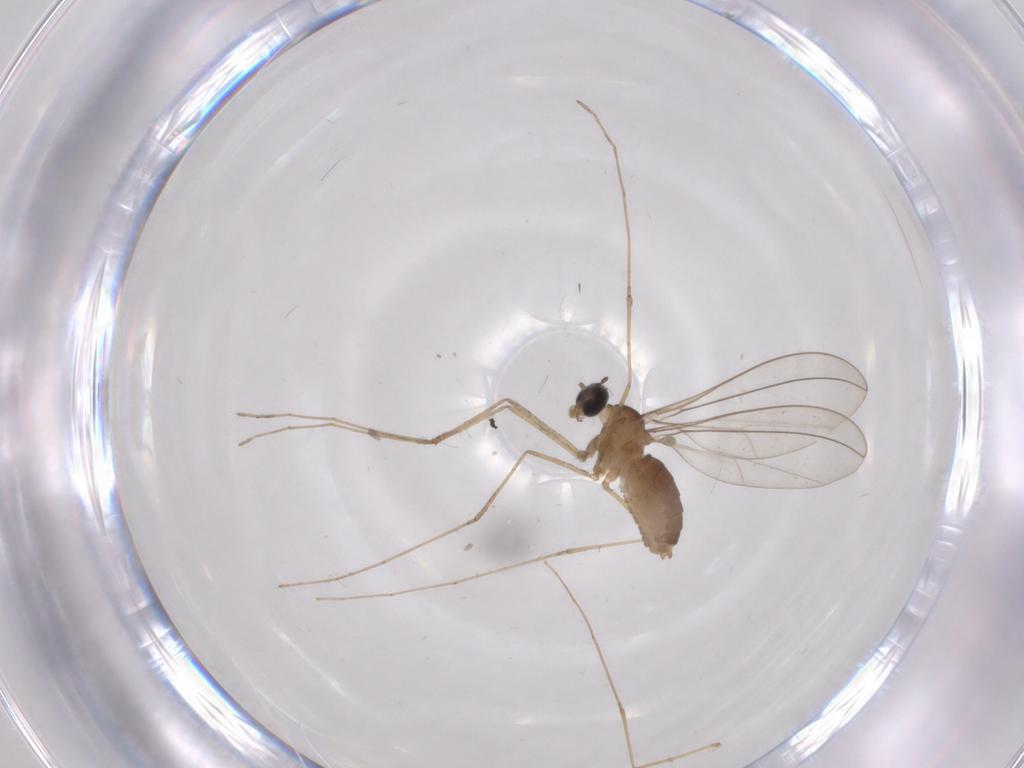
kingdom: Animalia
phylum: Arthropoda
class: Insecta
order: Diptera
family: Cecidomyiidae
